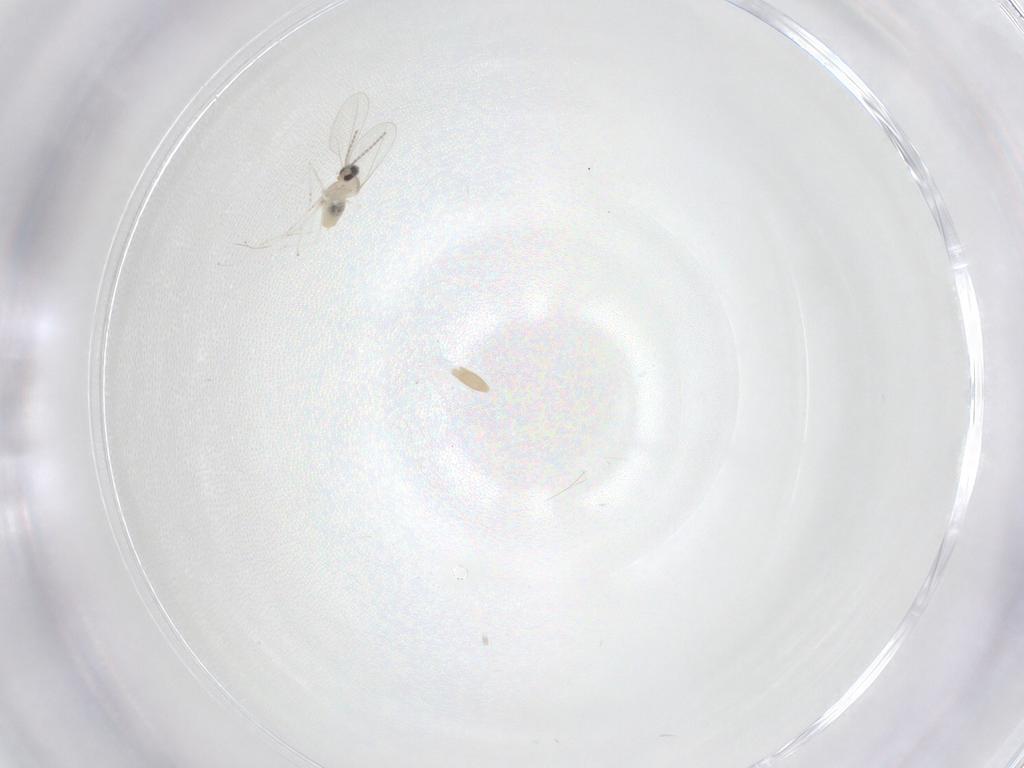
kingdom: Animalia
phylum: Arthropoda
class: Insecta
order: Diptera
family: Psychodidae
